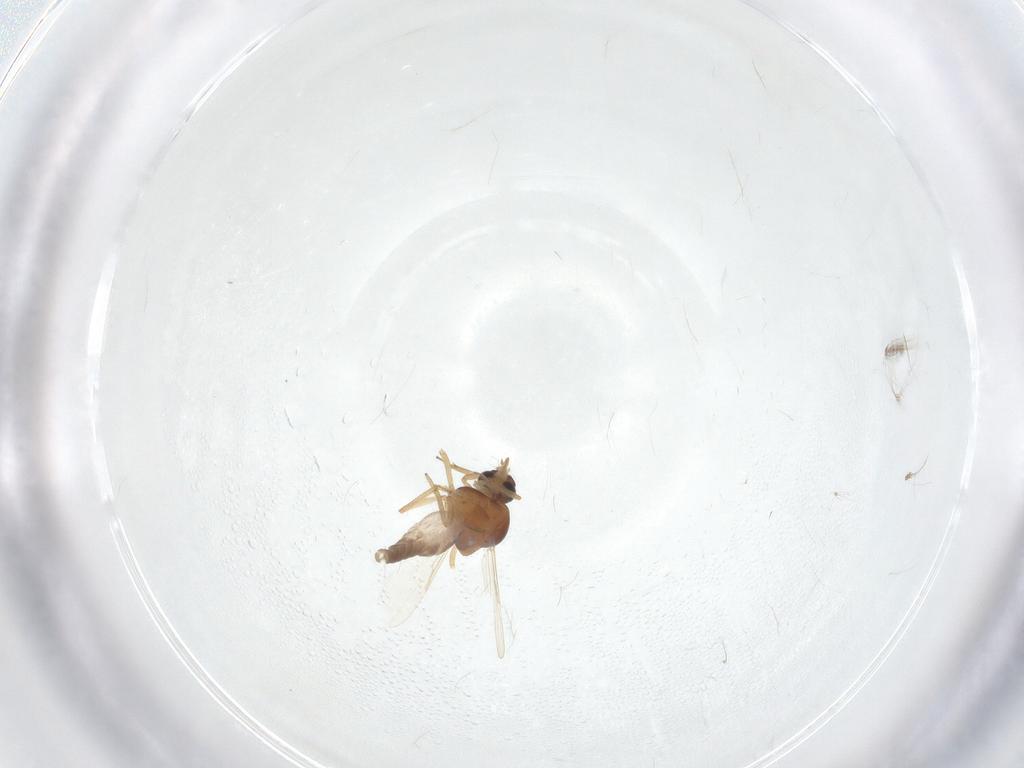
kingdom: Animalia
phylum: Arthropoda
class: Insecta
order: Diptera
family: Ceratopogonidae
